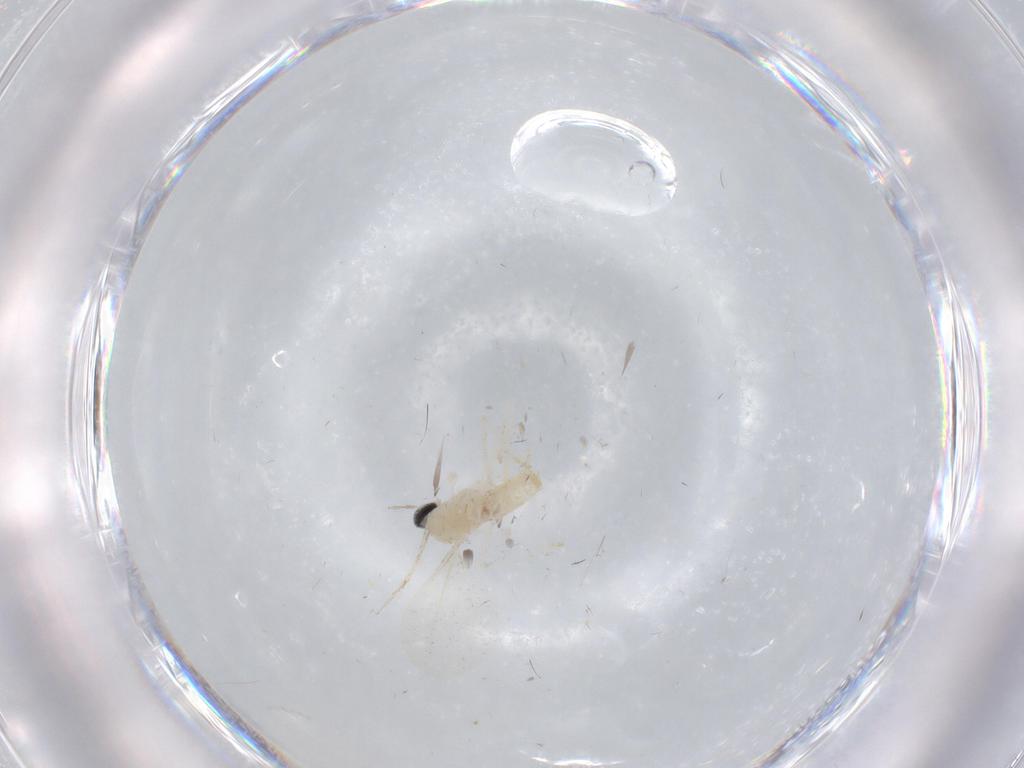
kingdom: Animalia
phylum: Arthropoda
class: Insecta
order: Diptera
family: Cecidomyiidae
